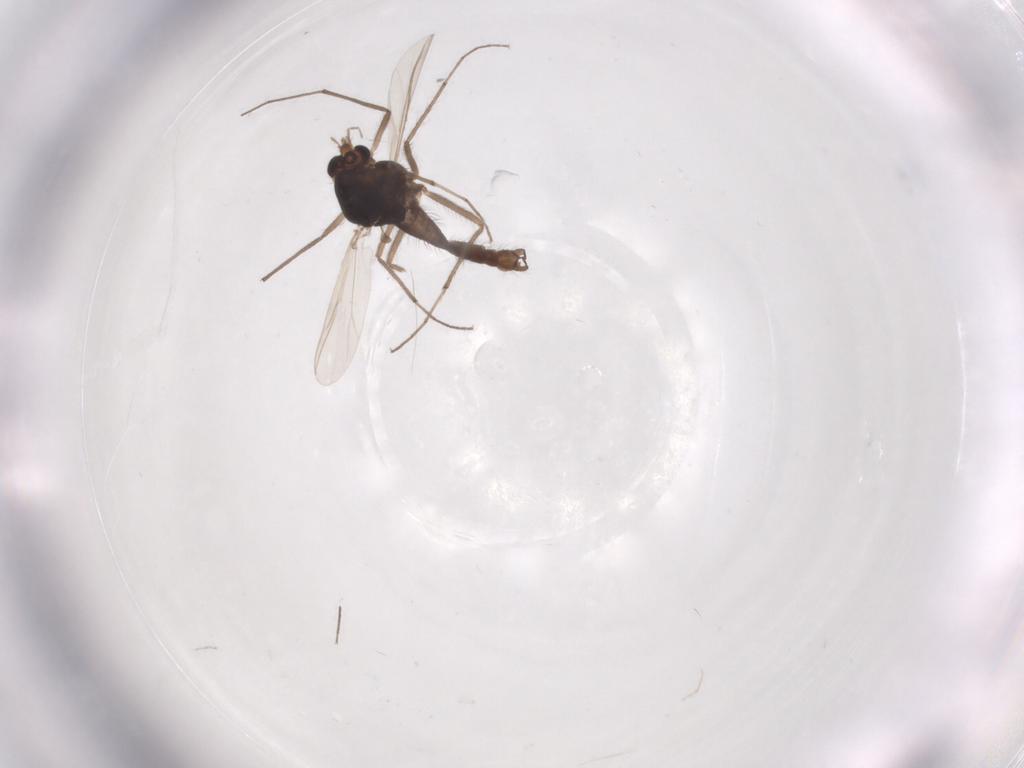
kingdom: Animalia
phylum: Arthropoda
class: Insecta
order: Diptera
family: Chironomidae
